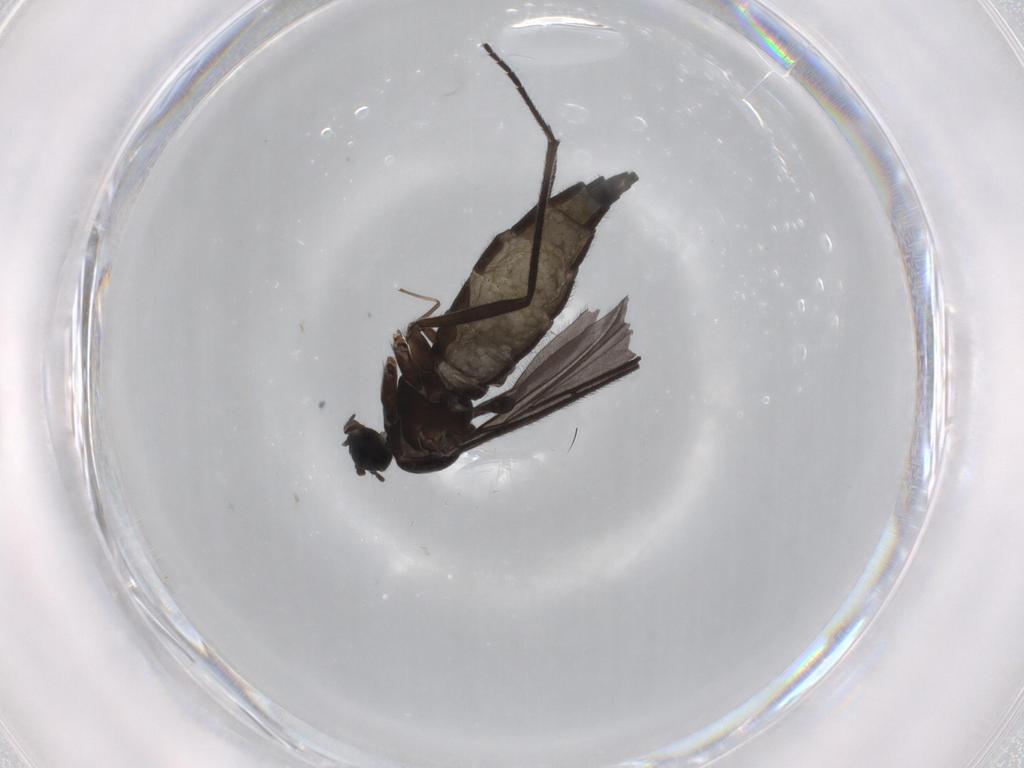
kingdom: Animalia
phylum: Arthropoda
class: Insecta
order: Diptera
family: Sciaridae
